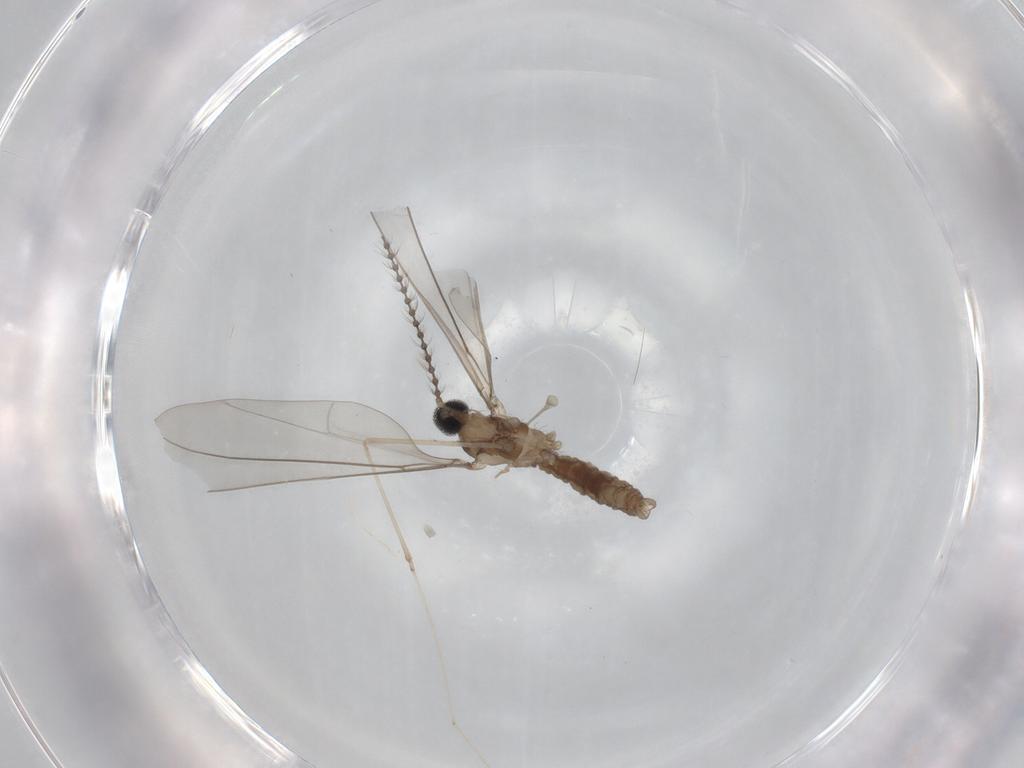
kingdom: Animalia
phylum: Arthropoda
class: Insecta
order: Diptera
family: Cecidomyiidae
